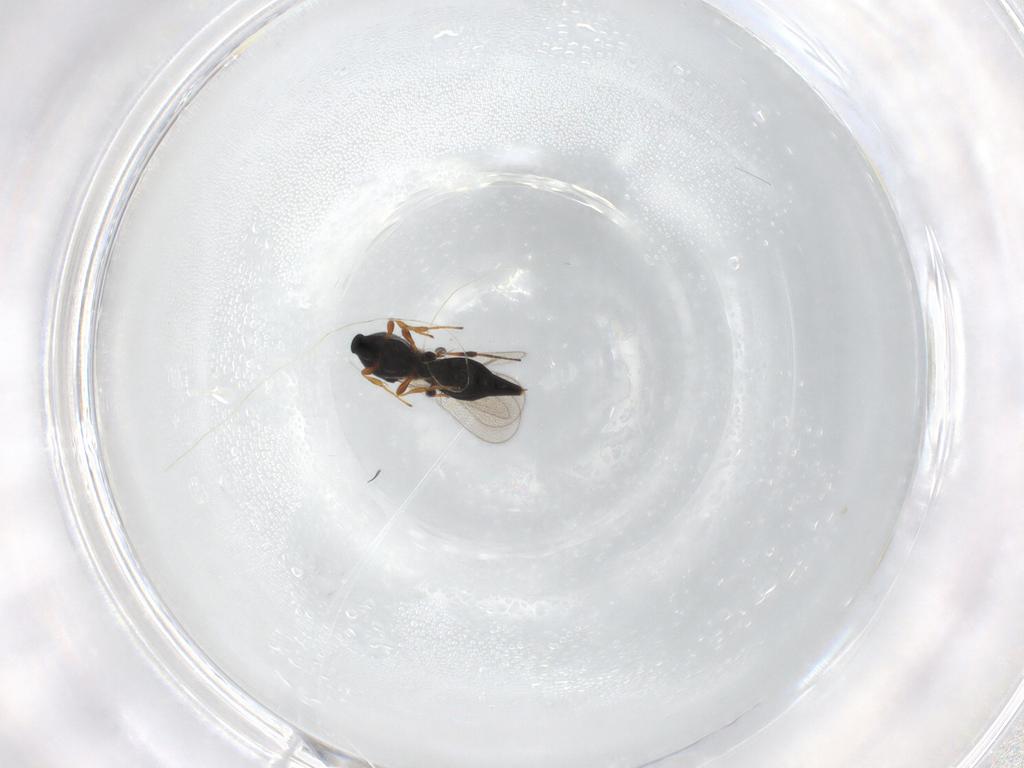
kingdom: Animalia
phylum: Arthropoda
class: Insecta
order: Hymenoptera
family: Platygastridae
